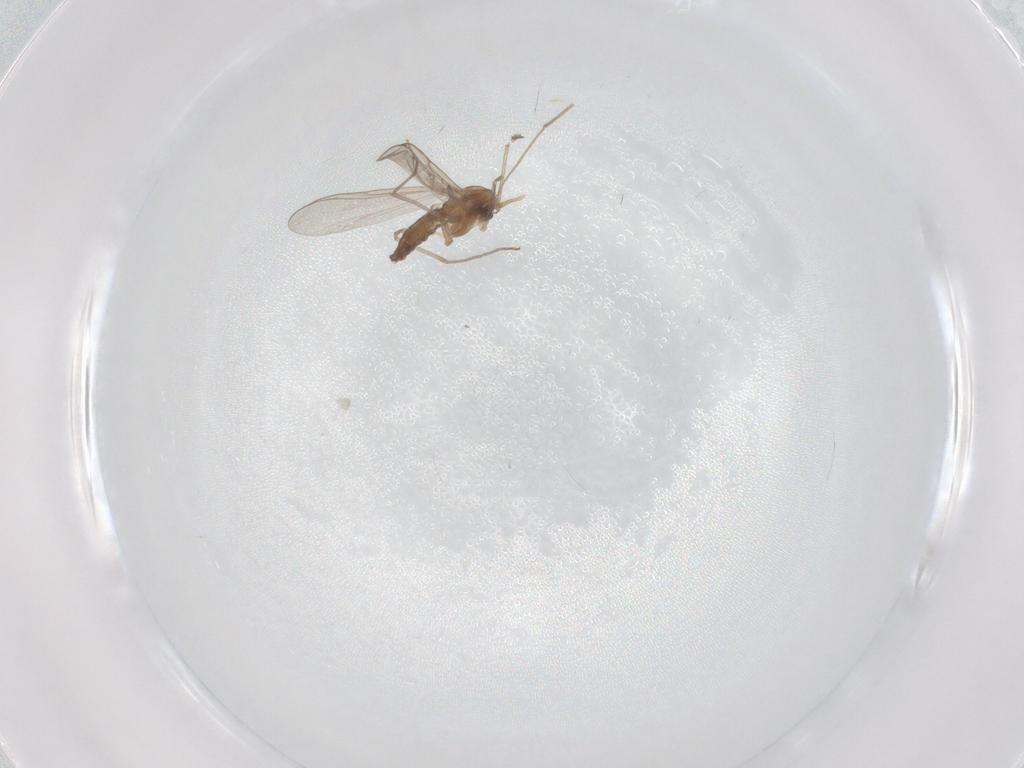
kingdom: Animalia
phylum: Arthropoda
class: Insecta
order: Diptera
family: Chironomidae
